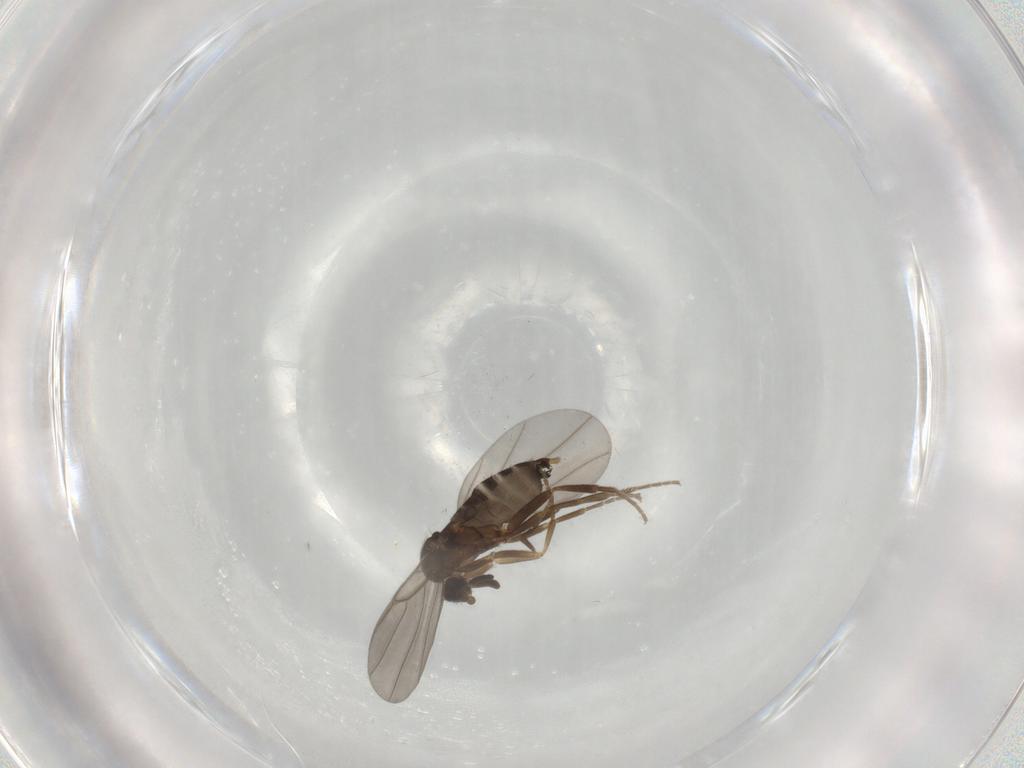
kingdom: Animalia
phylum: Arthropoda
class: Insecta
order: Diptera
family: Phoridae
